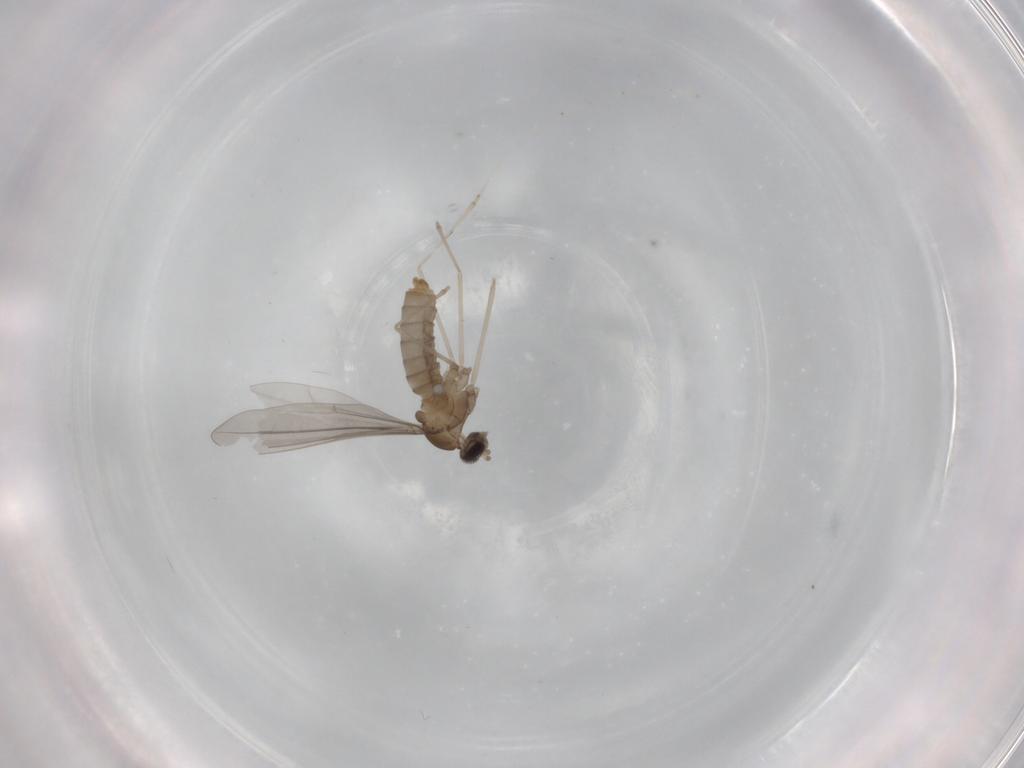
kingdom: Animalia
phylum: Arthropoda
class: Insecta
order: Diptera
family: Cecidomyiidae
